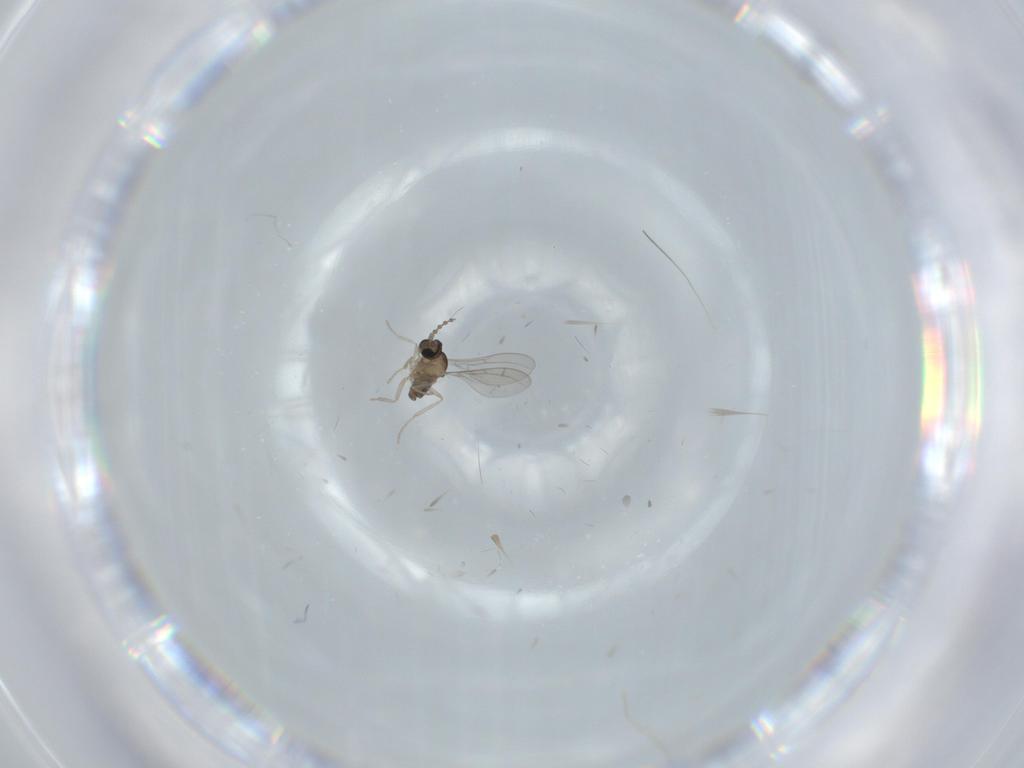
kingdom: Animalia
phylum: Arthropoda
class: Insecta
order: Diptera
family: Cecidomyiidae
